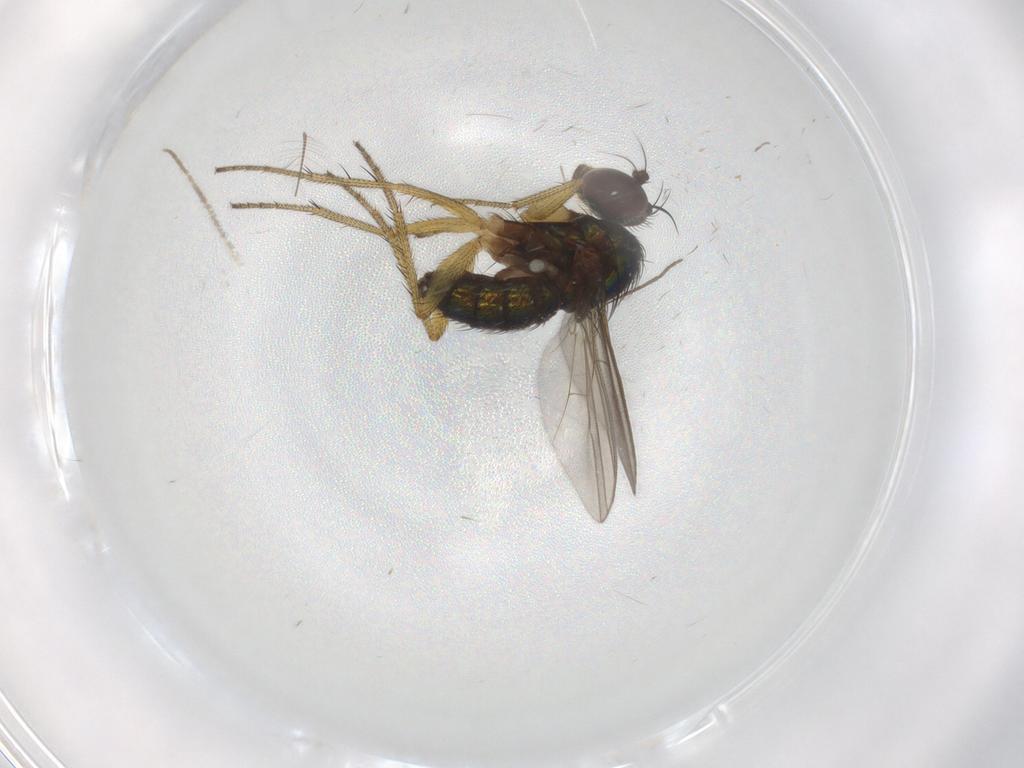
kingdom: Animalia
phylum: Arthropoda
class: Insecta
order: Diptera
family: Dolichopodidae
